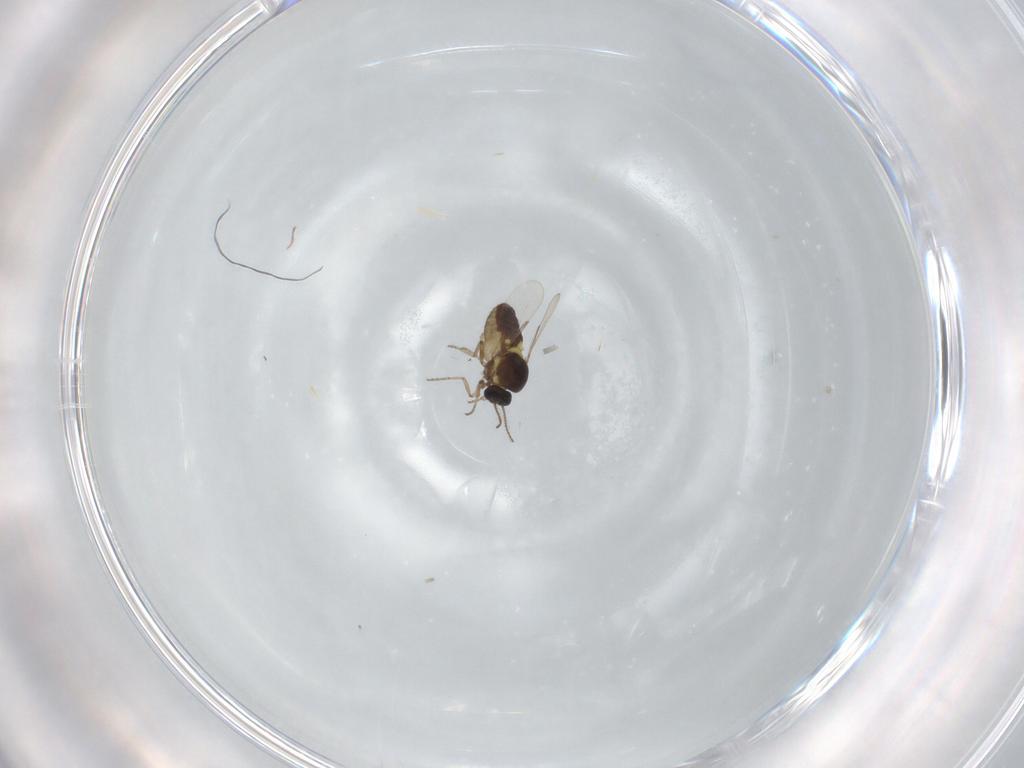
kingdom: Animalia
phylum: Arthropoda
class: Insecta
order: Diptera
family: Ceratopogonidae
